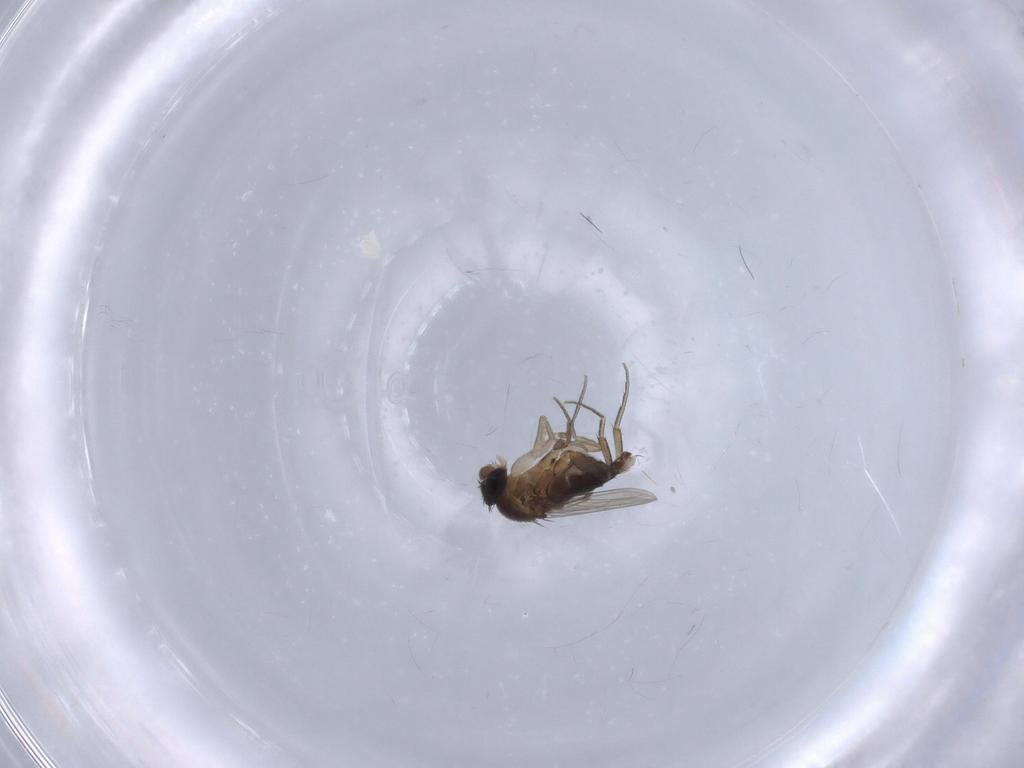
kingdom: Animalia
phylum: Arthropoda
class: Insecta
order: Diptera
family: Phoridae
